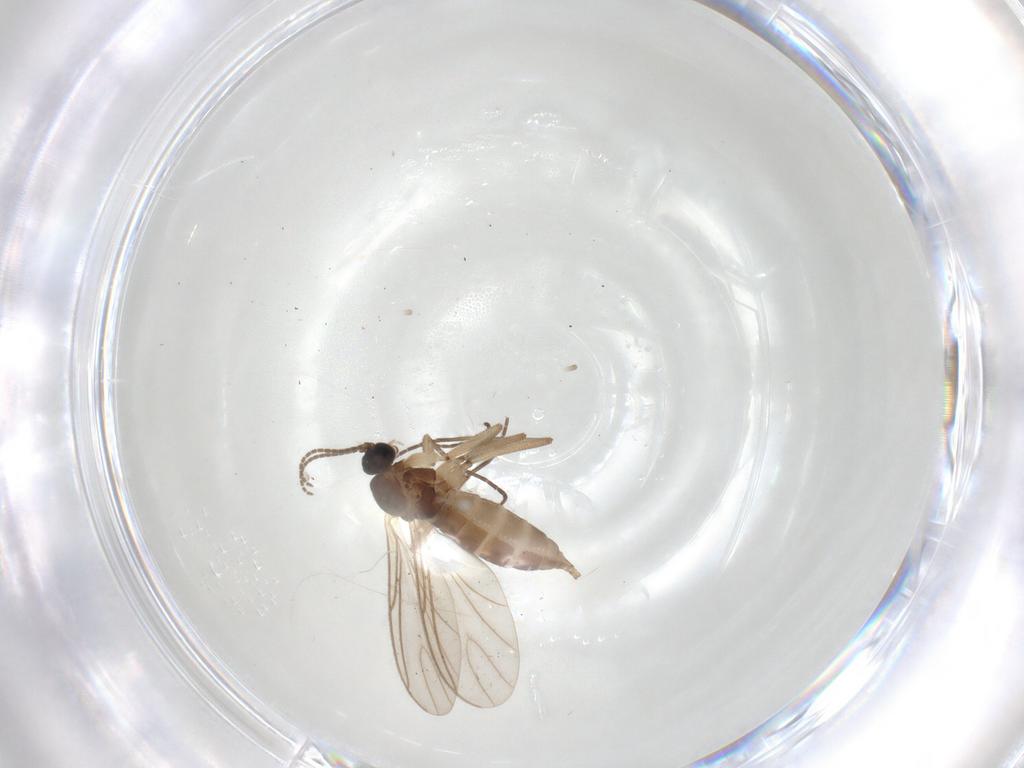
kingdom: Animalia
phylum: Arthropoda
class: Insecta
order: Diptera
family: Sciaridae
